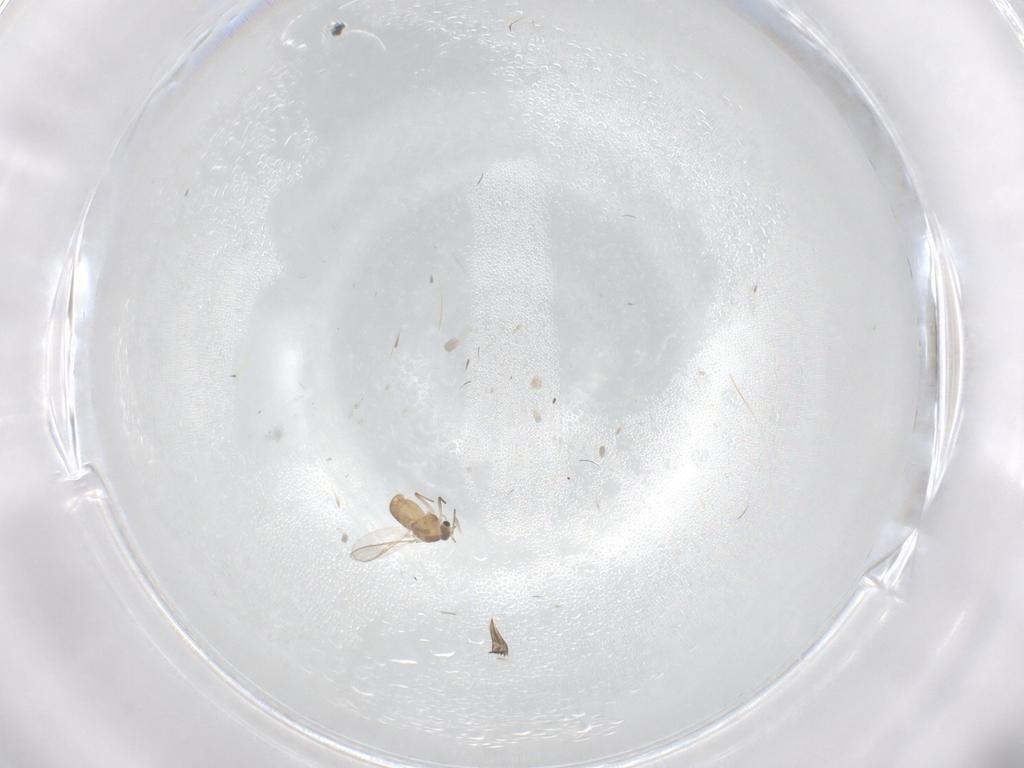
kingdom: Animalia
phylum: Arthropoda
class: Insecta
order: Diptera
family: Chironomidae
